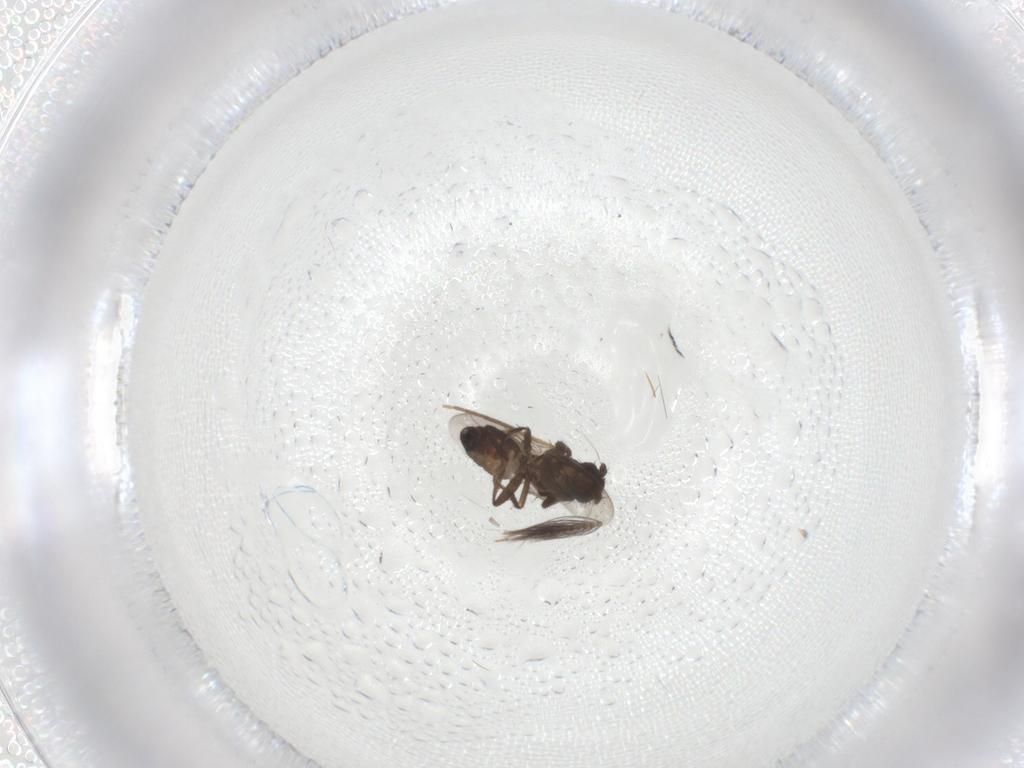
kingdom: Animalia
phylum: Arthropoda
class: Insecta
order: Diptera
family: Sphaeroceridae
